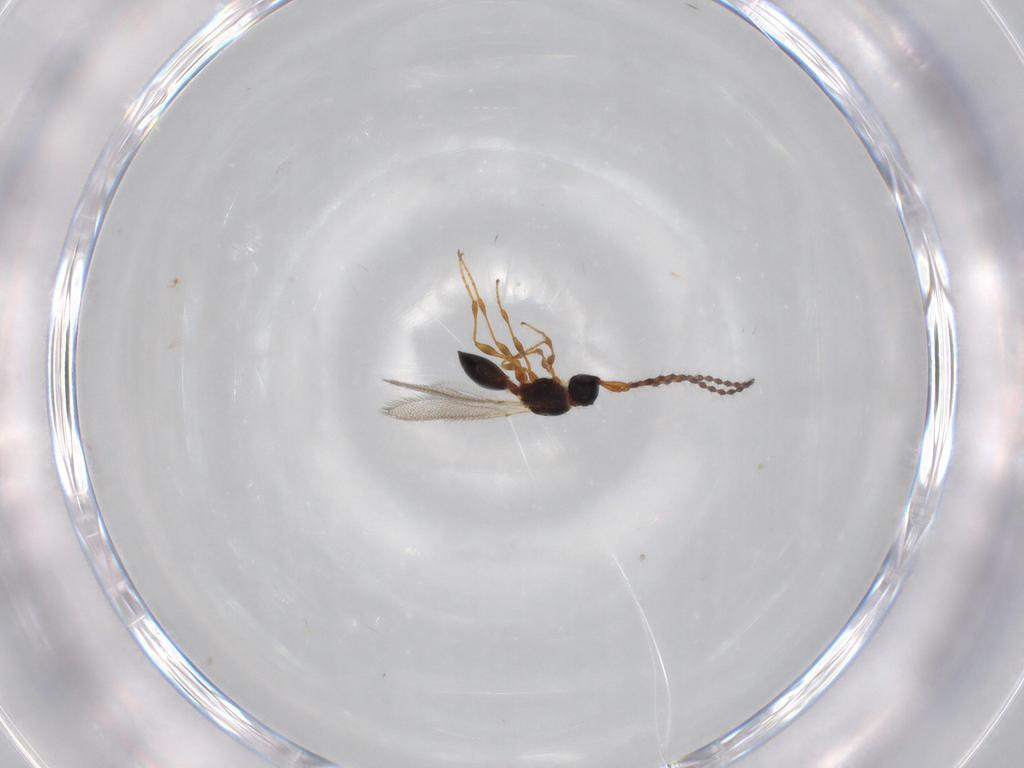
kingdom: Animalia
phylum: Arthropoda
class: Insecta
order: Hymenoptera
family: Diapriidae
